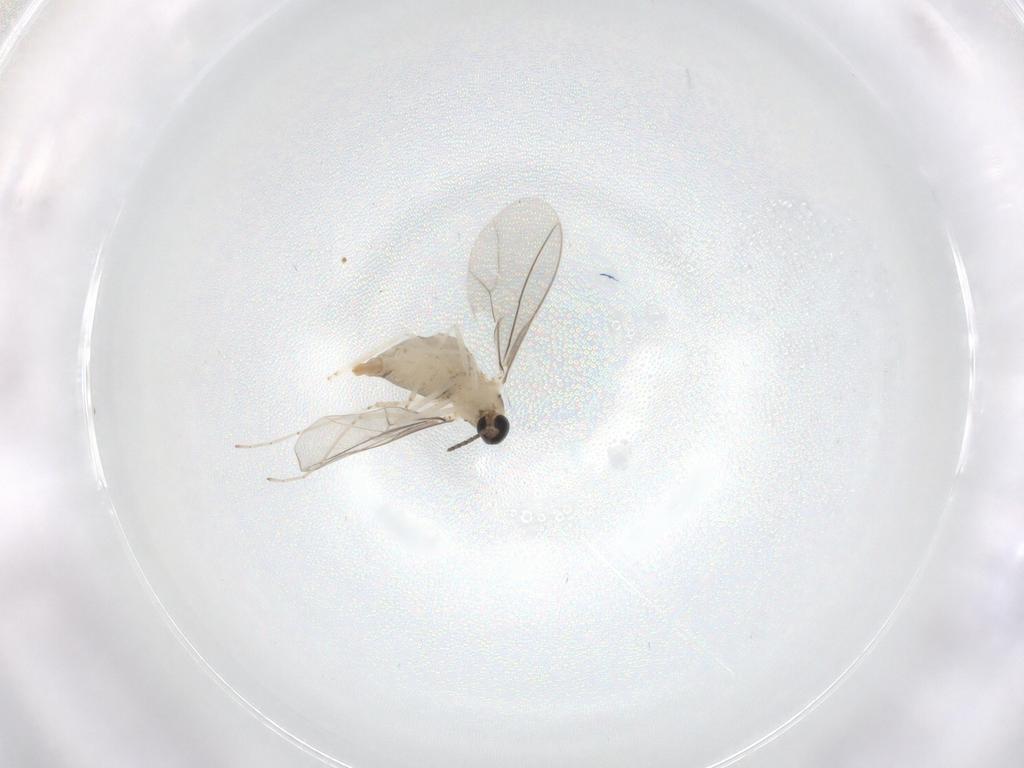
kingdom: Animalia
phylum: Arthropoda
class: Insecta
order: Diptera
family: Cecidomyiidae
